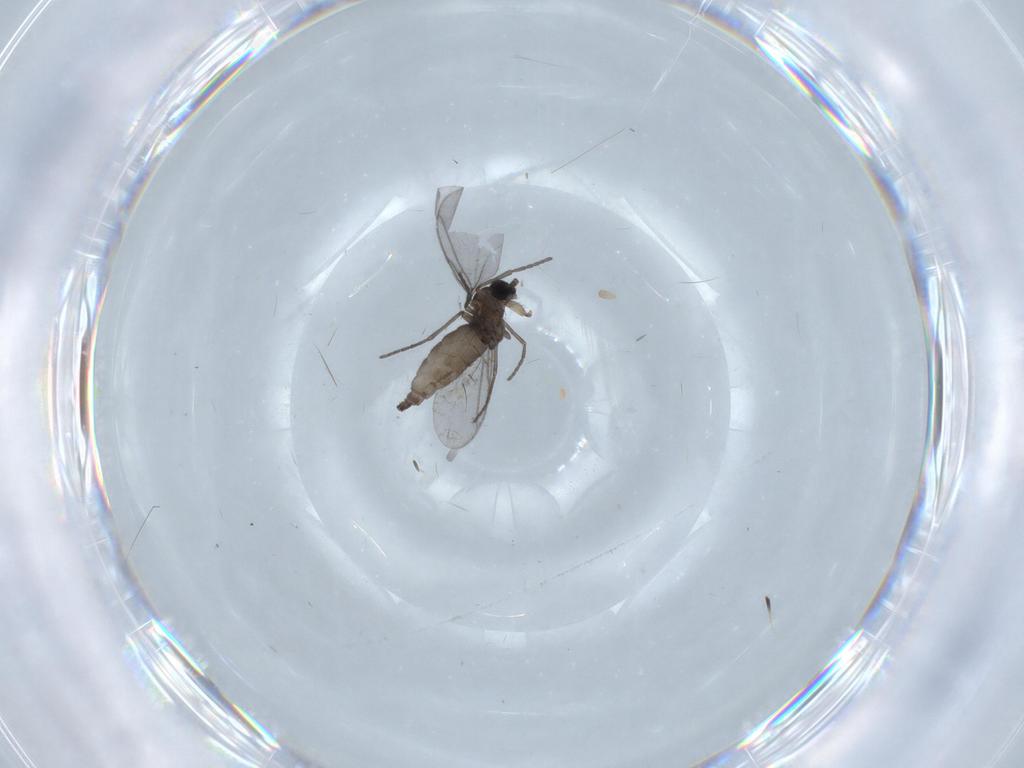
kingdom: Animalia
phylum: Arthropoda
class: Insecta
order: Diptera
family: Cecidomyiidae
